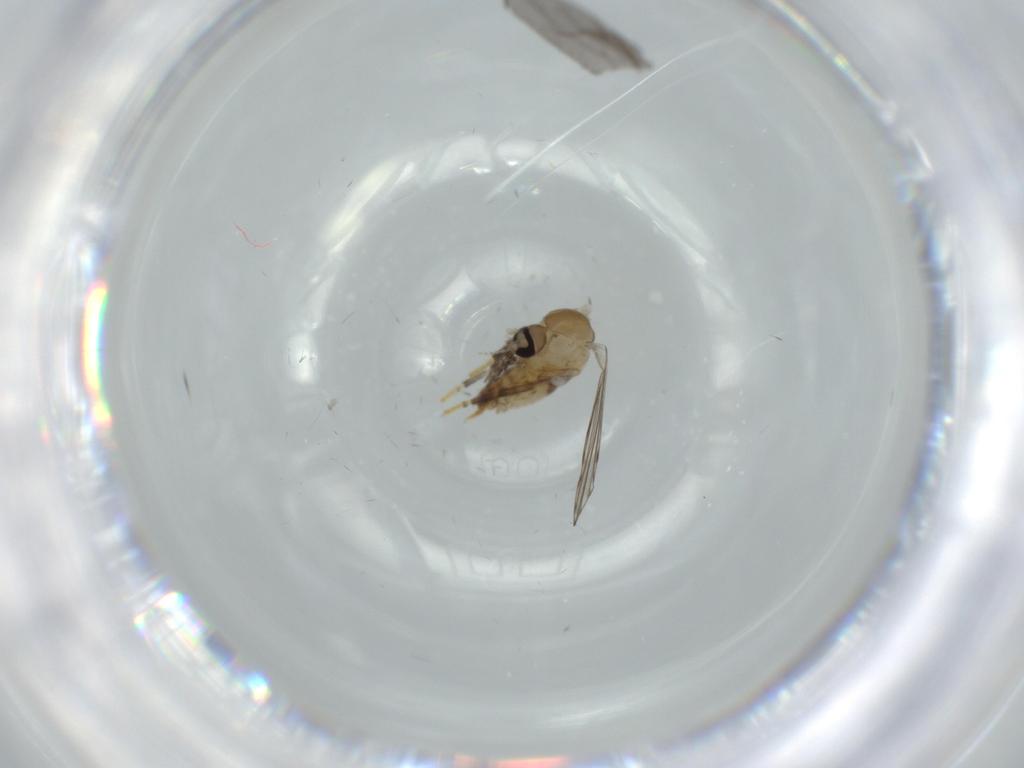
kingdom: Animalia
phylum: Arthropoda
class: Insecta
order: Diptera
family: Psychodidae
